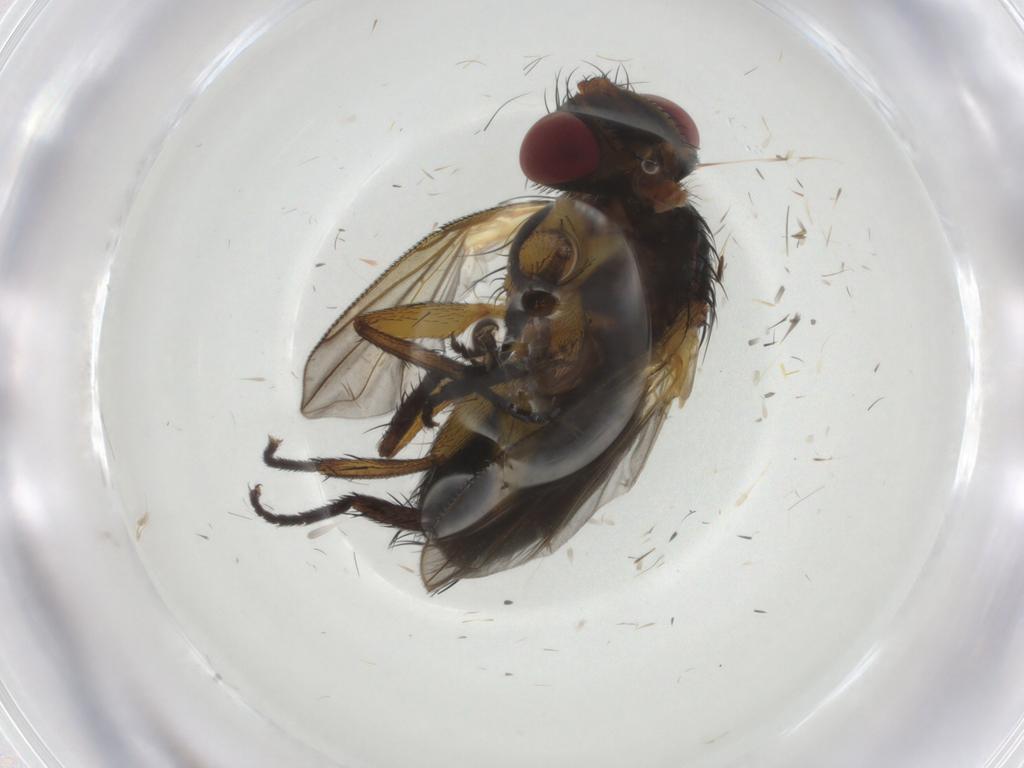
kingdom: Animalia
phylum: Arthropoda
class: Insecta
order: Diptera
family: Tachinidae
